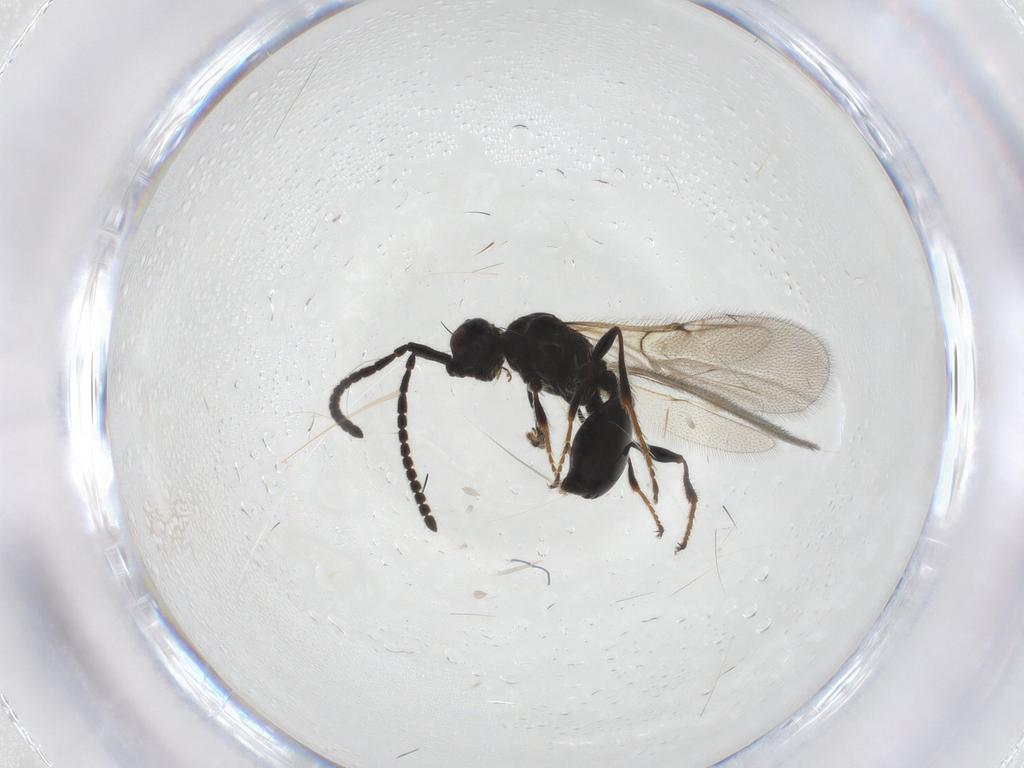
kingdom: Animalia
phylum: Arthropoda
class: Insecta
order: Hymenoptera
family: Diapriidae
